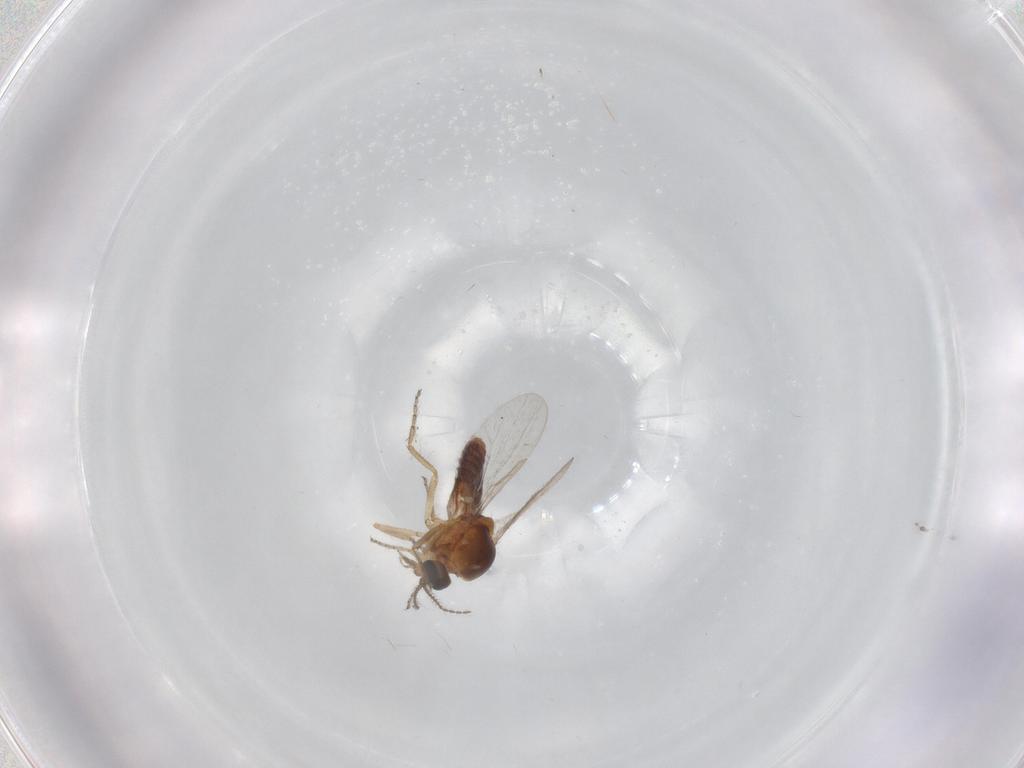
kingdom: Animalia
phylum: Arthropoda
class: Insecta
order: Diptera
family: Ceratopogonidae
